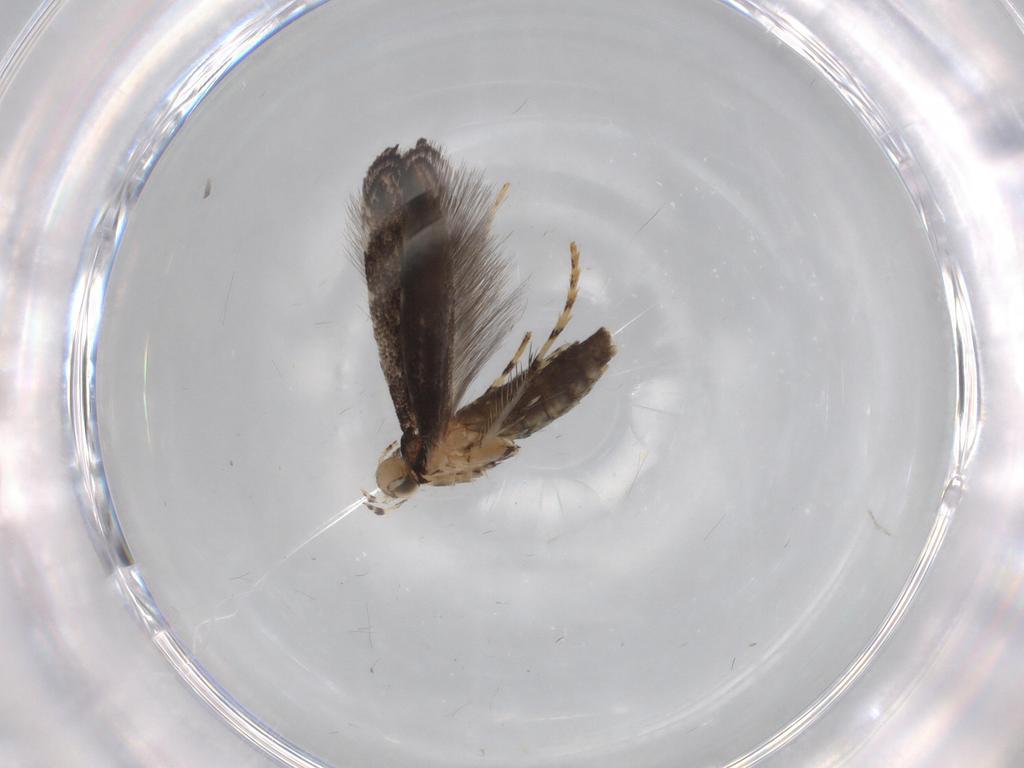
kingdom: Animalia
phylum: Arthropoda
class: Insecta
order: Lepidoptera
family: Gracillariidae
